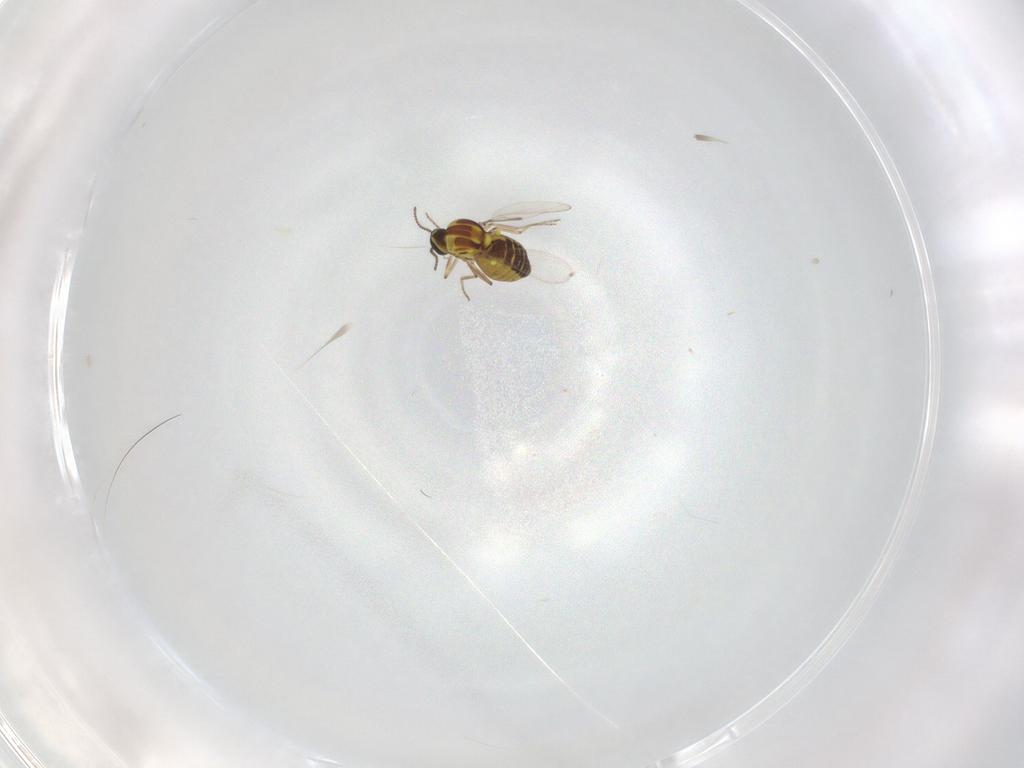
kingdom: Animalia
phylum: Arthropoda
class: Insecta
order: Diptera
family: Ceratopogonidae
